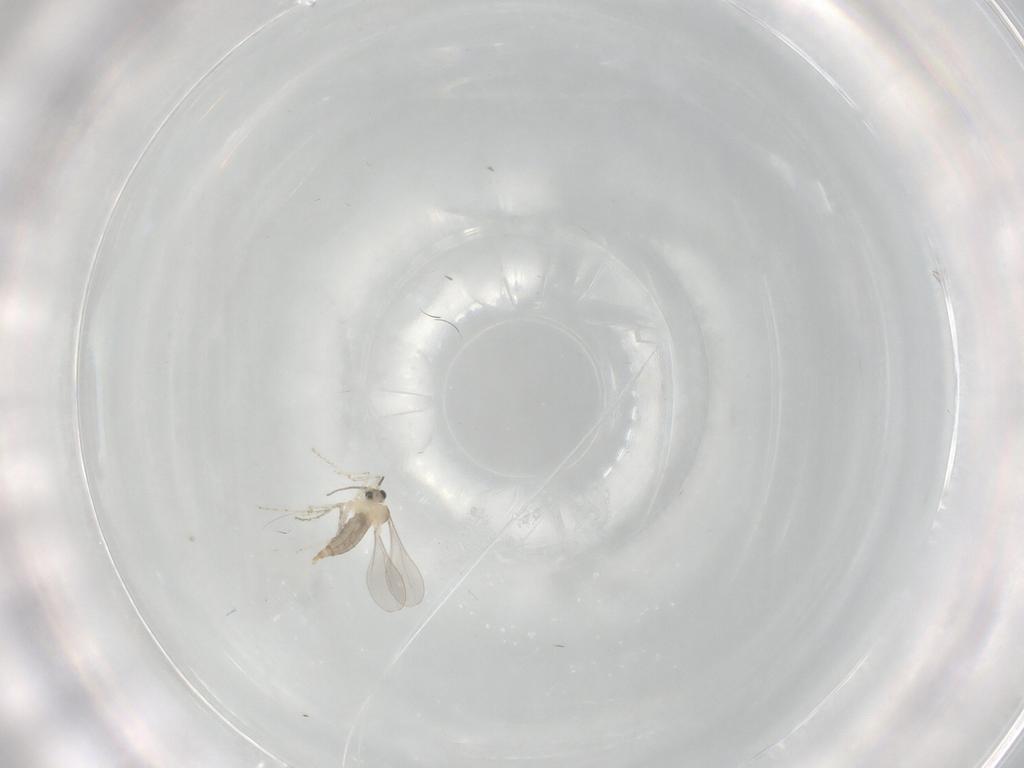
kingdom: Animalia
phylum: Arthropoda
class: Insecta
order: Diptera
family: Cecidomyiidae
